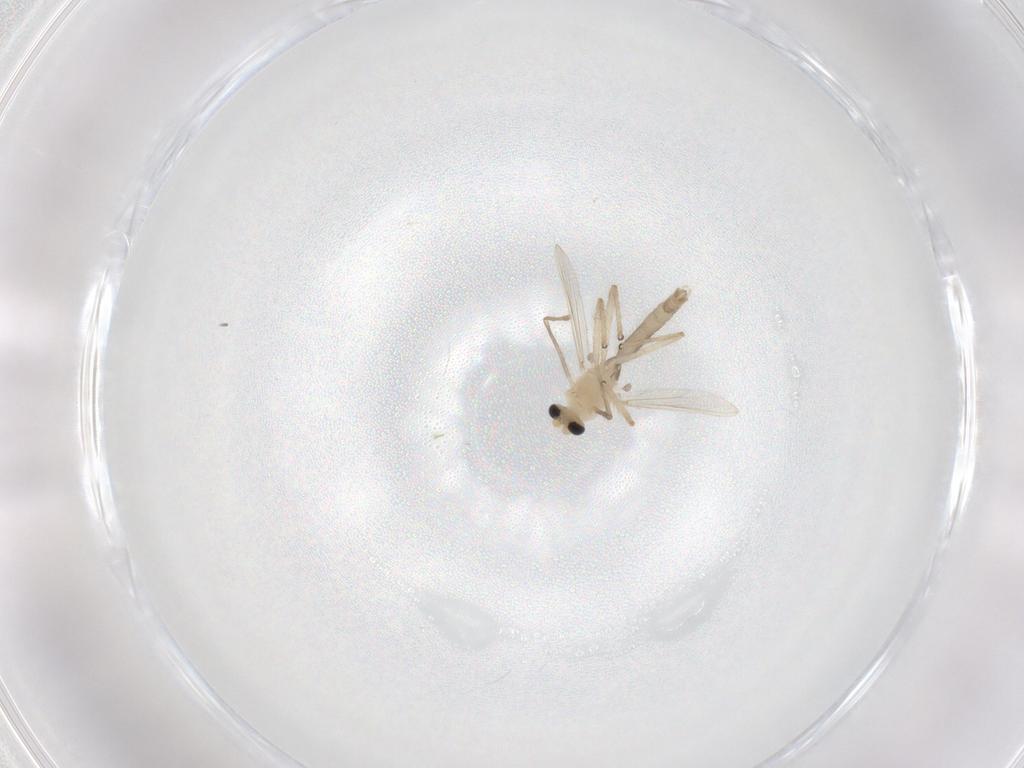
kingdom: Animalia
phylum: Arthropoda
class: Insecta
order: Diptera
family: Chironomidae
